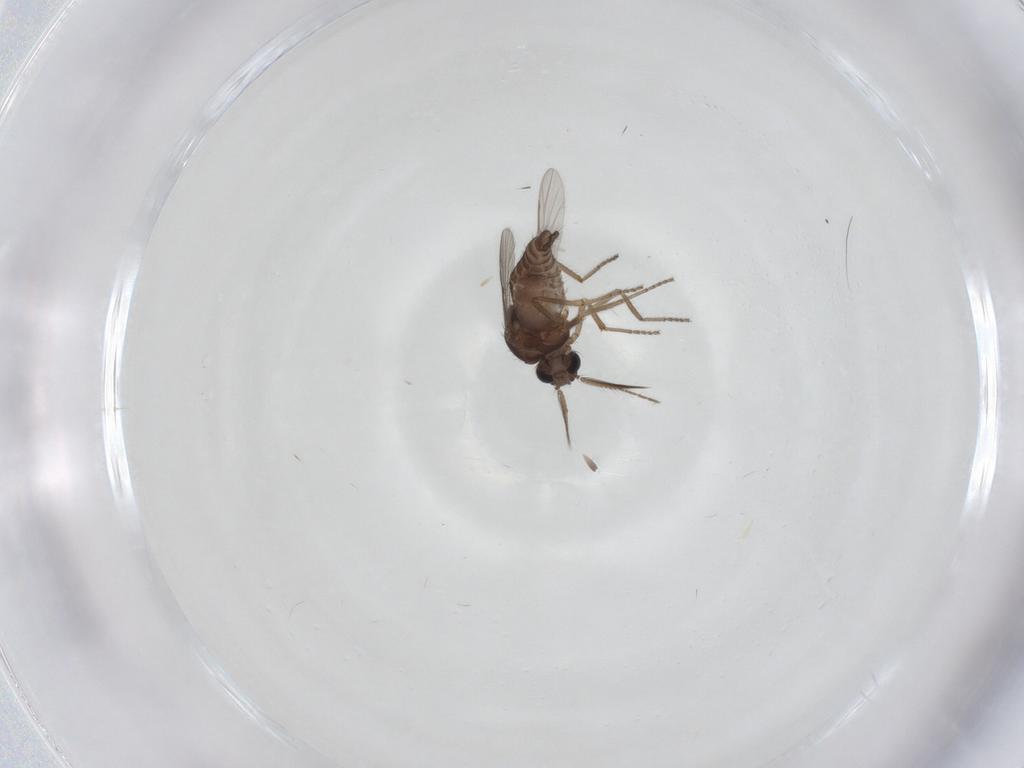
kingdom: Animalia
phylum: Arthropoda
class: Insecta
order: Diptera
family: Ceratopogonidae
